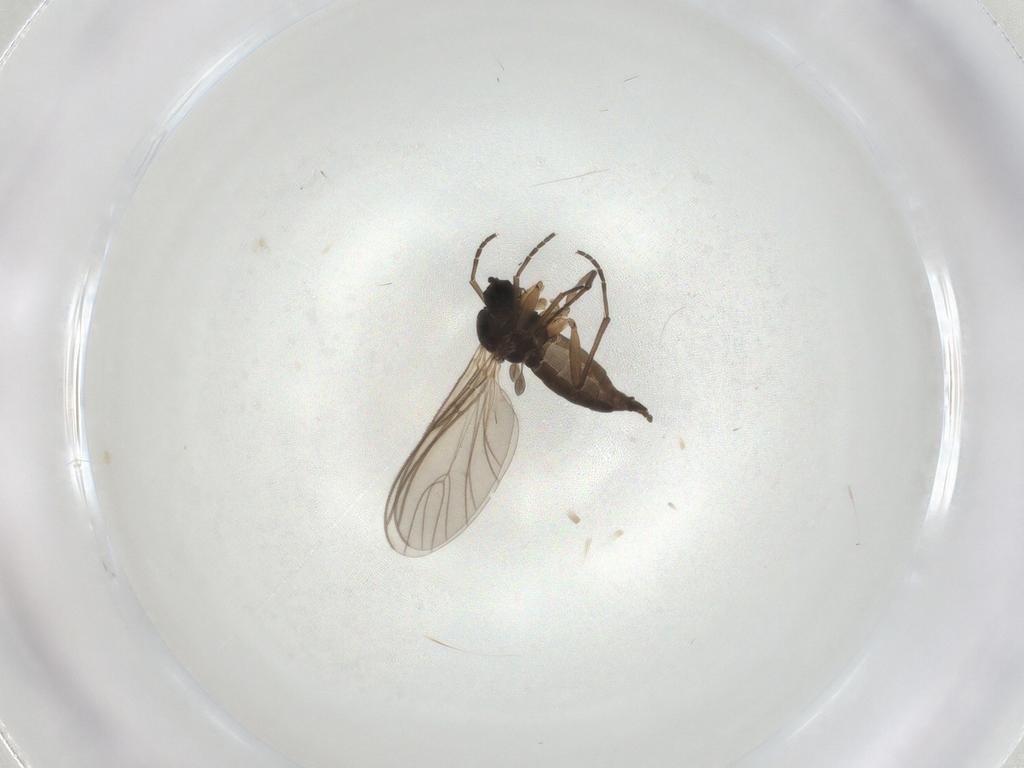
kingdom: Animalia
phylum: Arthropoda
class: Insecta
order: Diptera
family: Sciaridae
